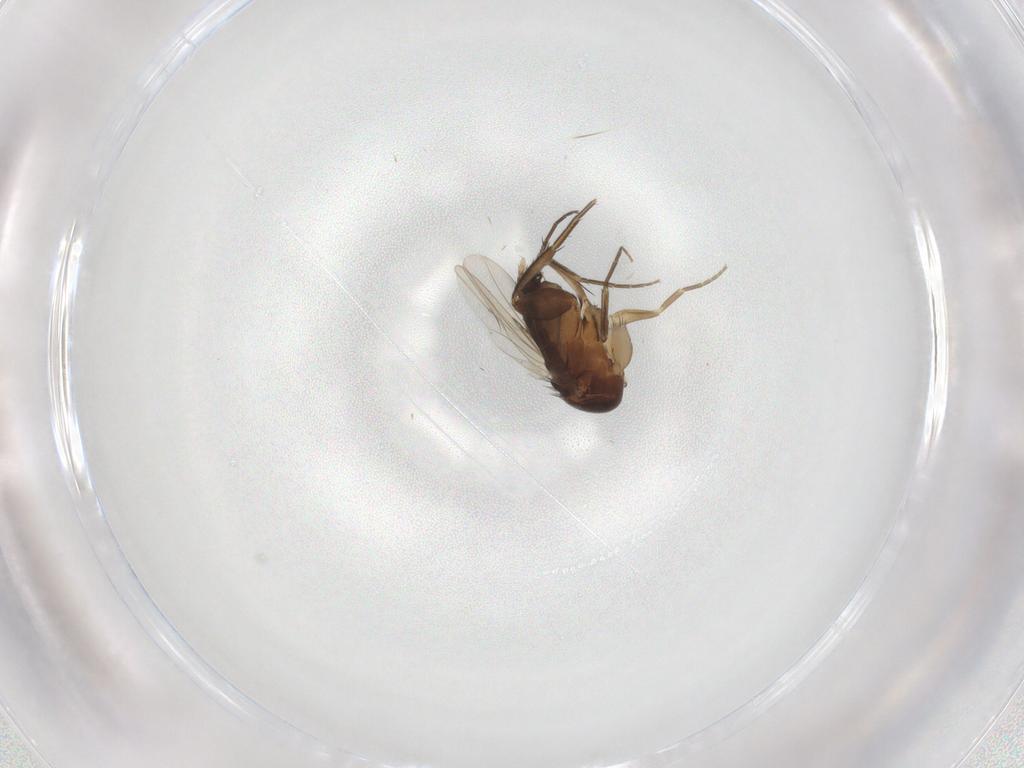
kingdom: Animalia
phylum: Arthropoda
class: Insecta
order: Diptera
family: Phoridae
